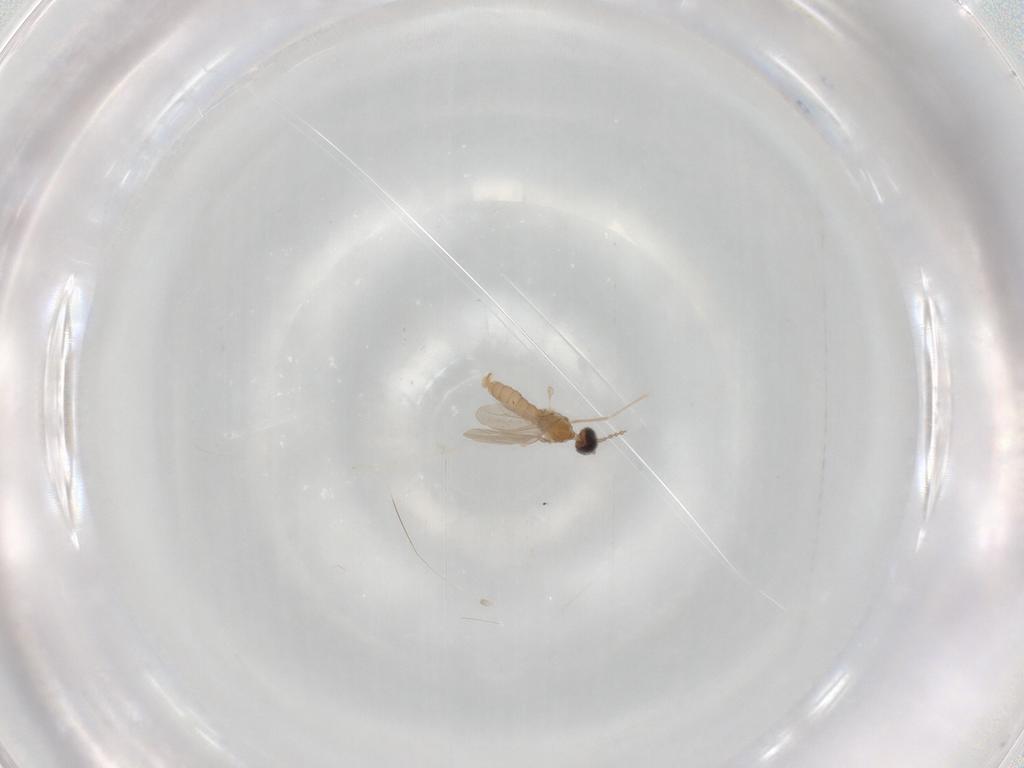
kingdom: Animalia
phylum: Arthropoda
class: Insecta
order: Diptera
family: Cecidomyiidae
